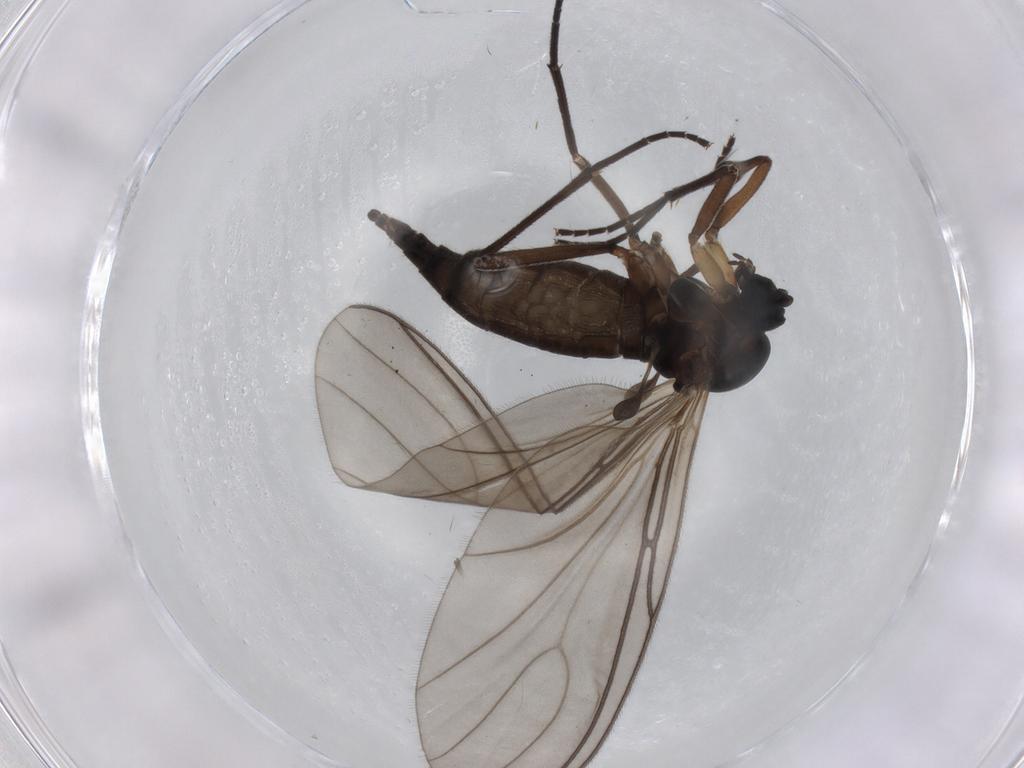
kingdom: Animalia
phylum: Arthropoda
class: Insecta
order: Diptera
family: Sciaridae
